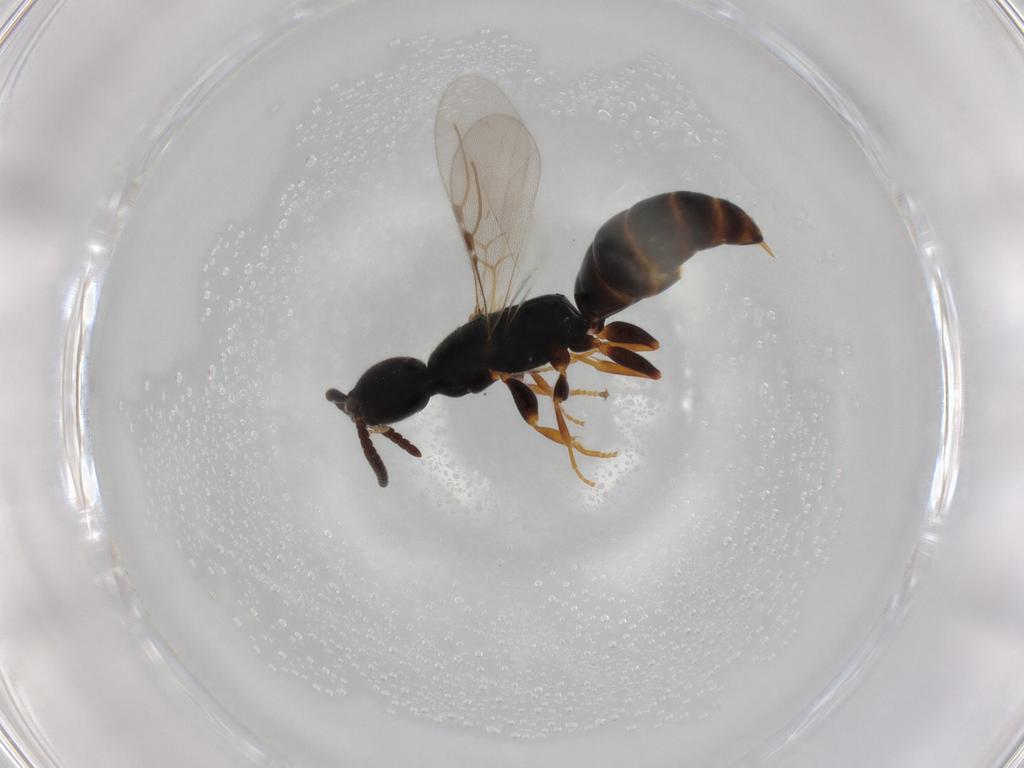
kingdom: Animalia
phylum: Arthropoda
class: Insecta
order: Hymenoptera
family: Bethylidae
